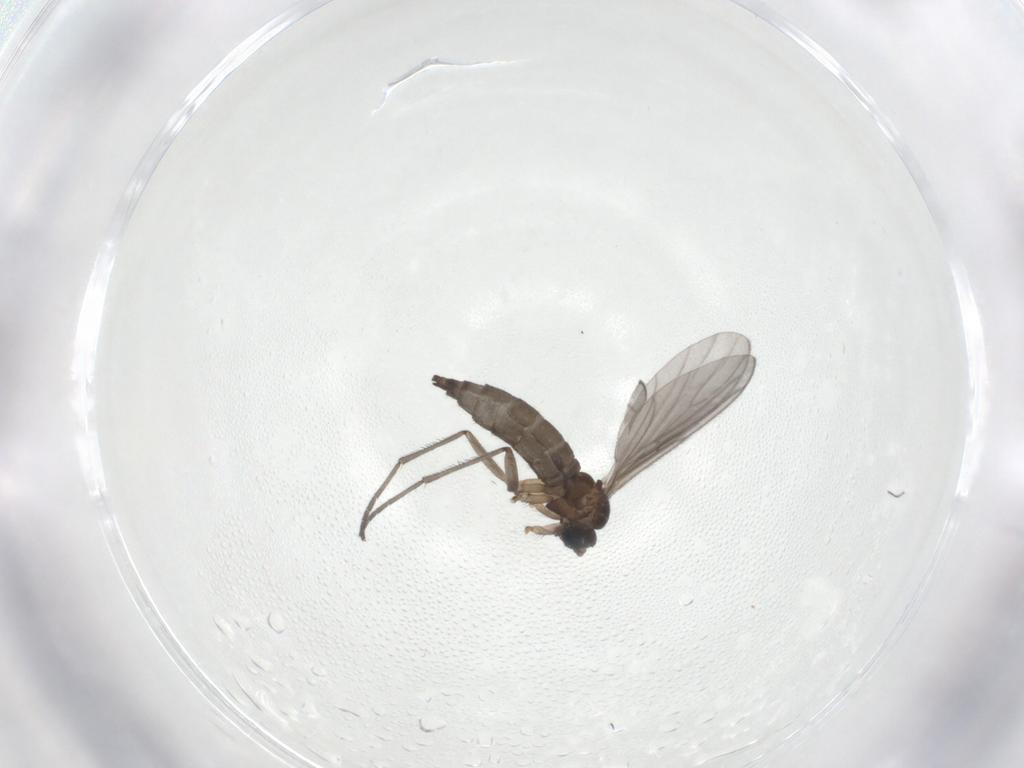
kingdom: Animalia
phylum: Arthropoda
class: Insecta
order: Diptera
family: Sciaridae
